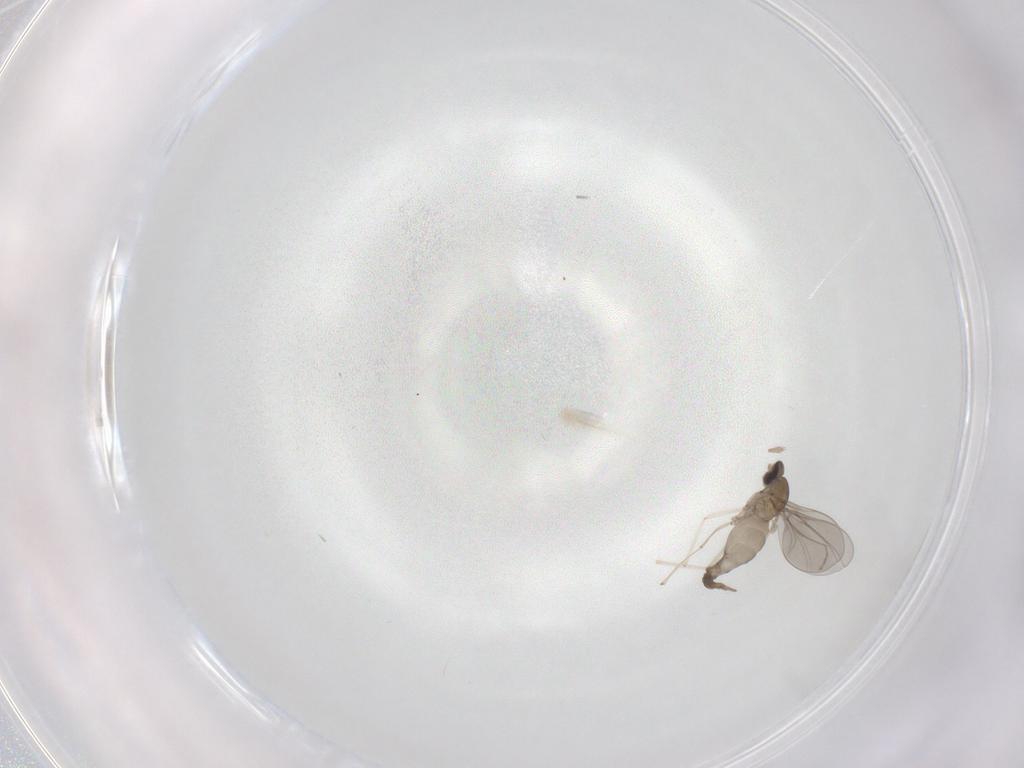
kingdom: Animalia
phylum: Arthropoda
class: Insecta
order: Diptera
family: Cecidomyiidae
